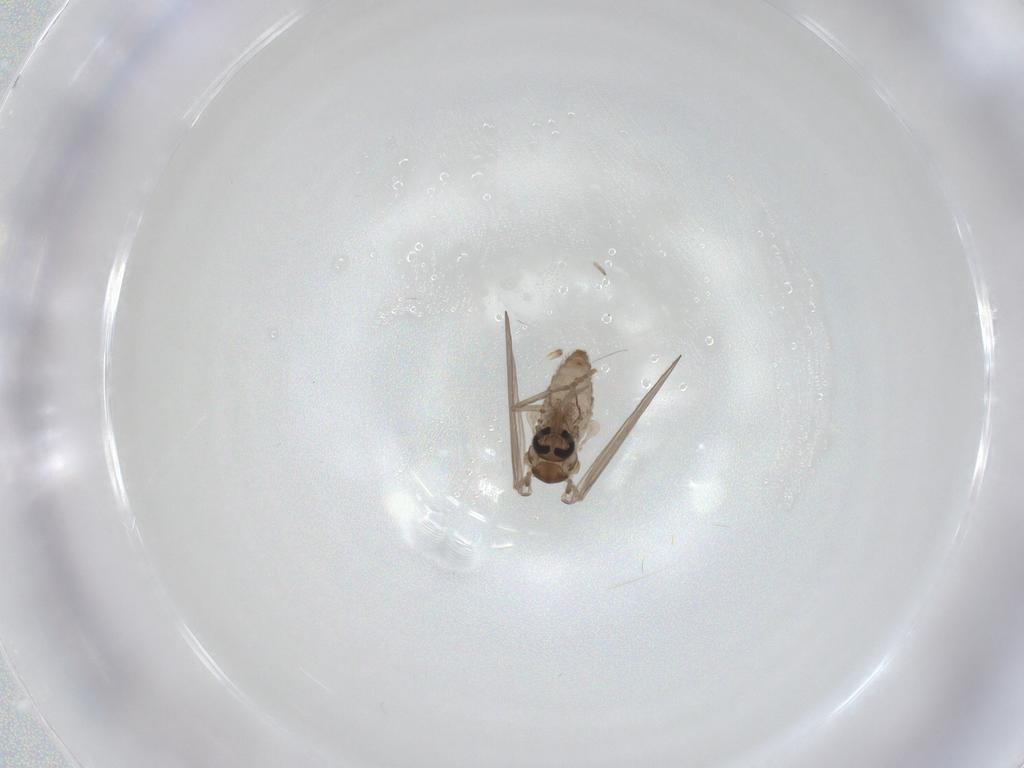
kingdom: Animalia
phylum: Arthropoda
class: Insecta
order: Diptera
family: Psychodidae
